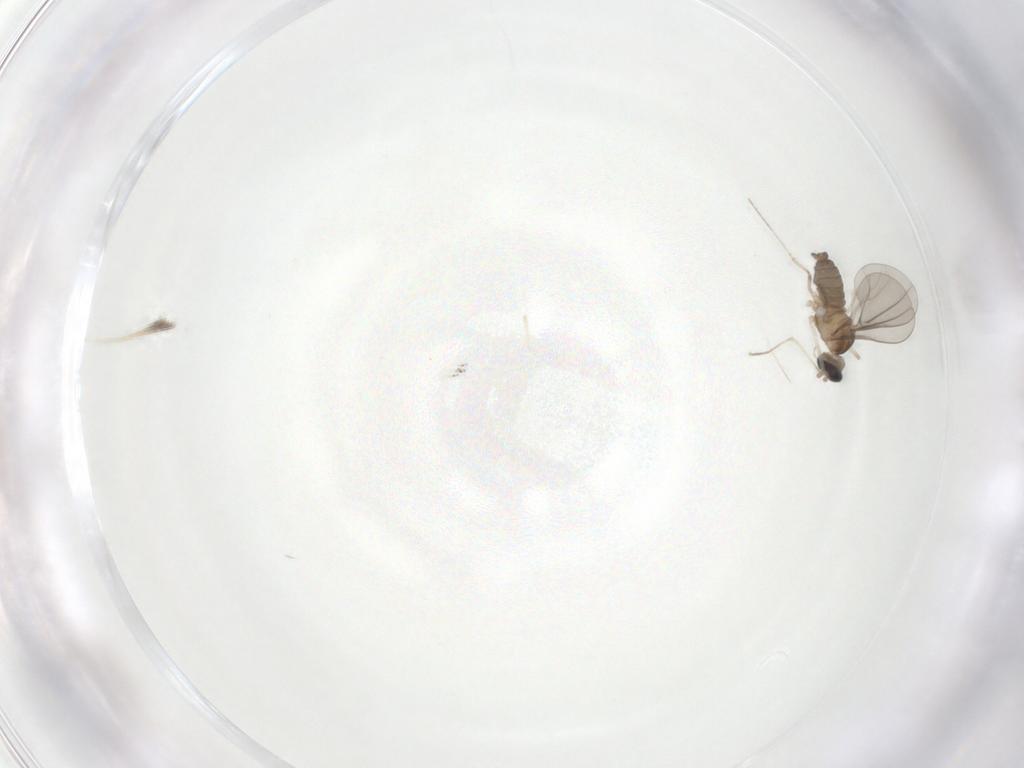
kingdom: Animalia
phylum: Arthropoda
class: Insecta
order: Diptera
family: Cecidomyiidae
